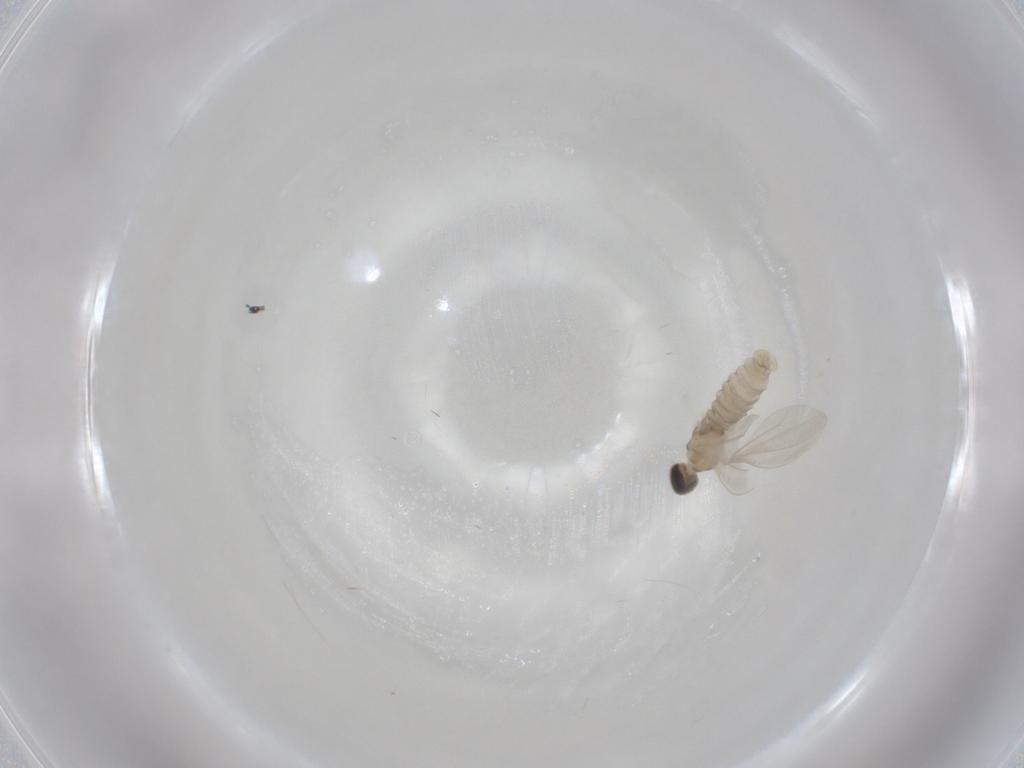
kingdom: Animalia
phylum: Arthropoda
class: Insecta
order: Diptera
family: Cecidomyiidae
